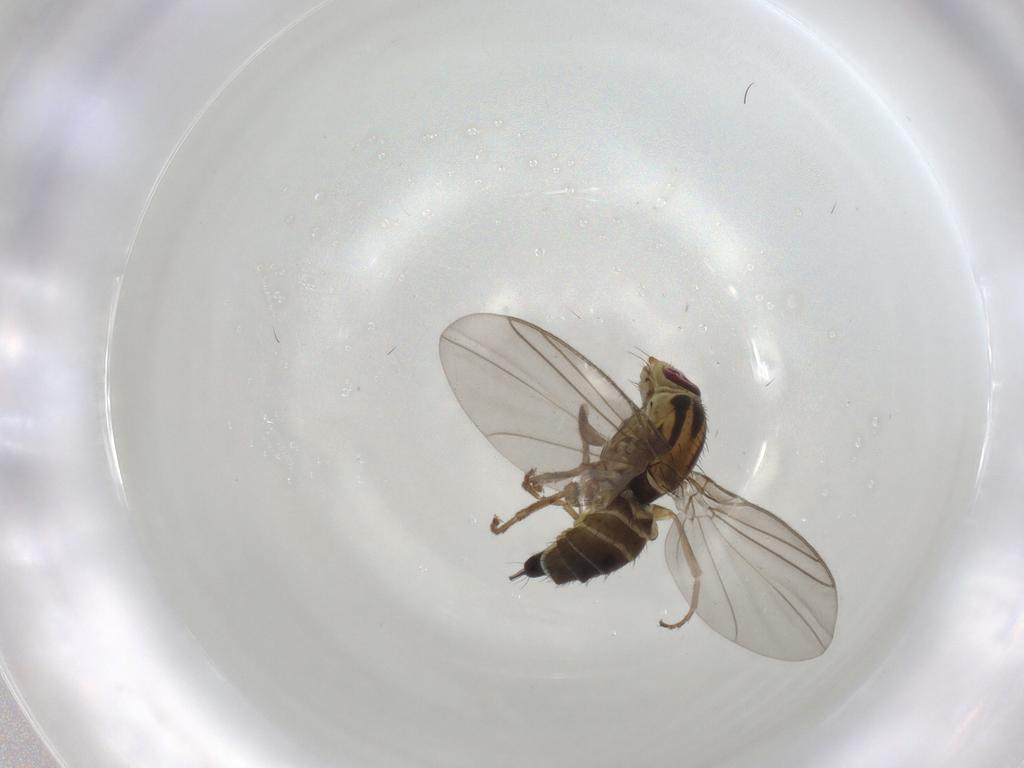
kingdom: Animalia
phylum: Arthropoda
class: Insecta
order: Diptera
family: Agromyzidae
